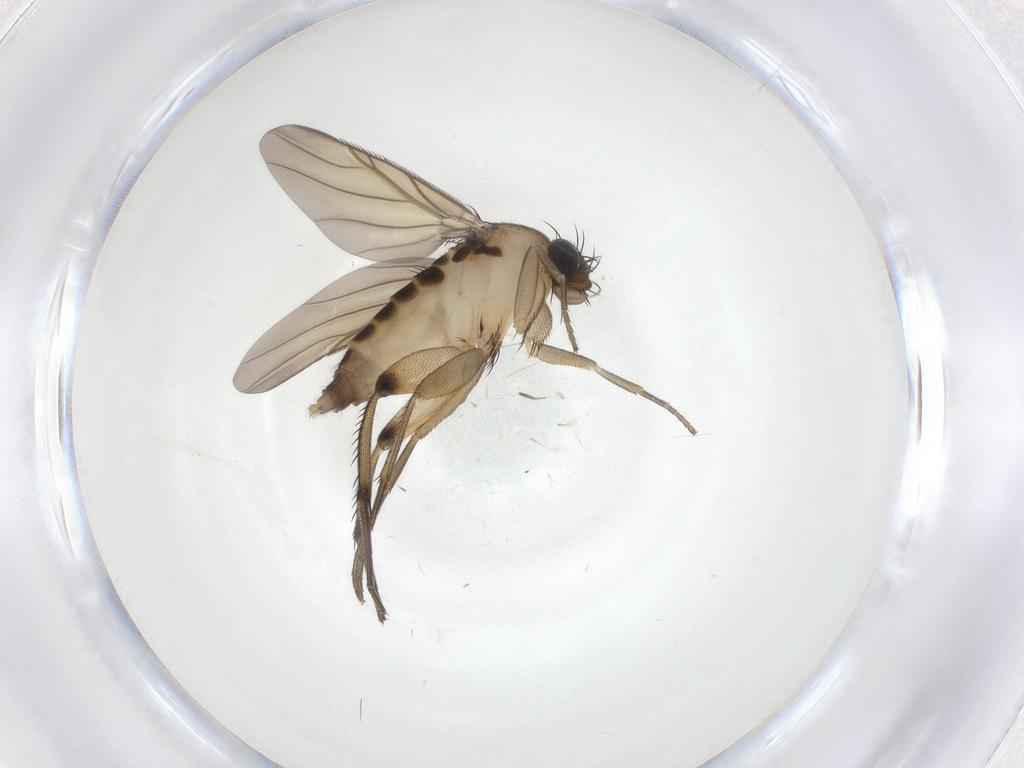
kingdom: Animalia
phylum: Arthropoda
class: Insecta
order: Diptera
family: Phoridae
